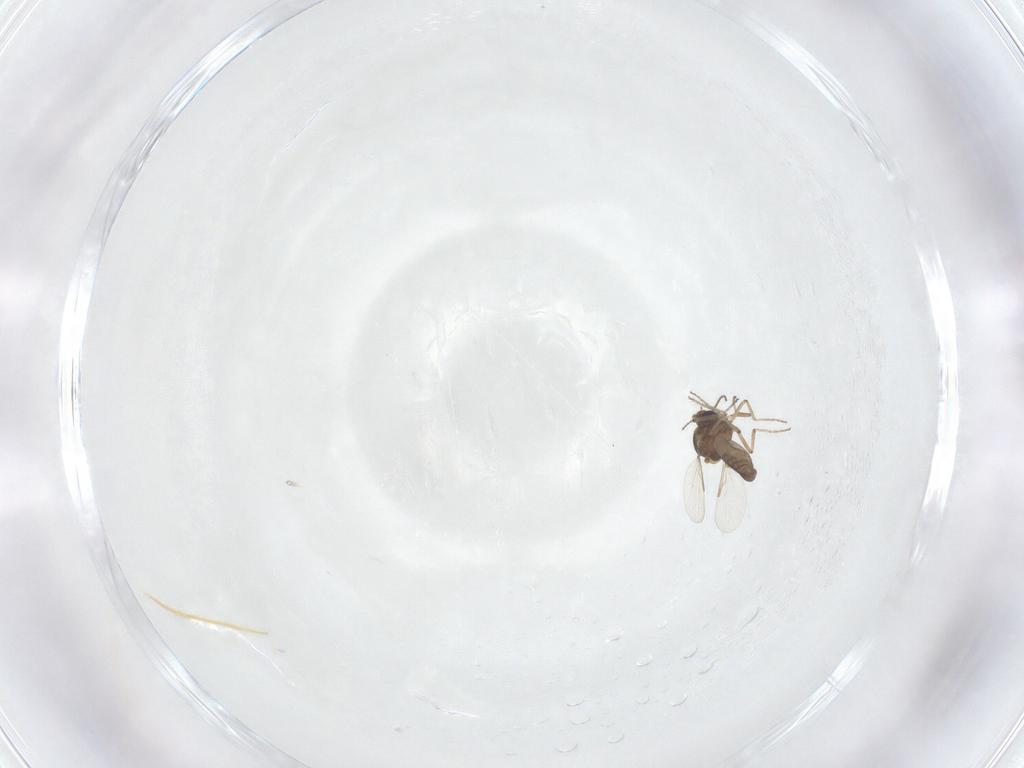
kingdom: Animalia
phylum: Arthropoda
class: Insecta
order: Diptera
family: Ceratopogonidae
